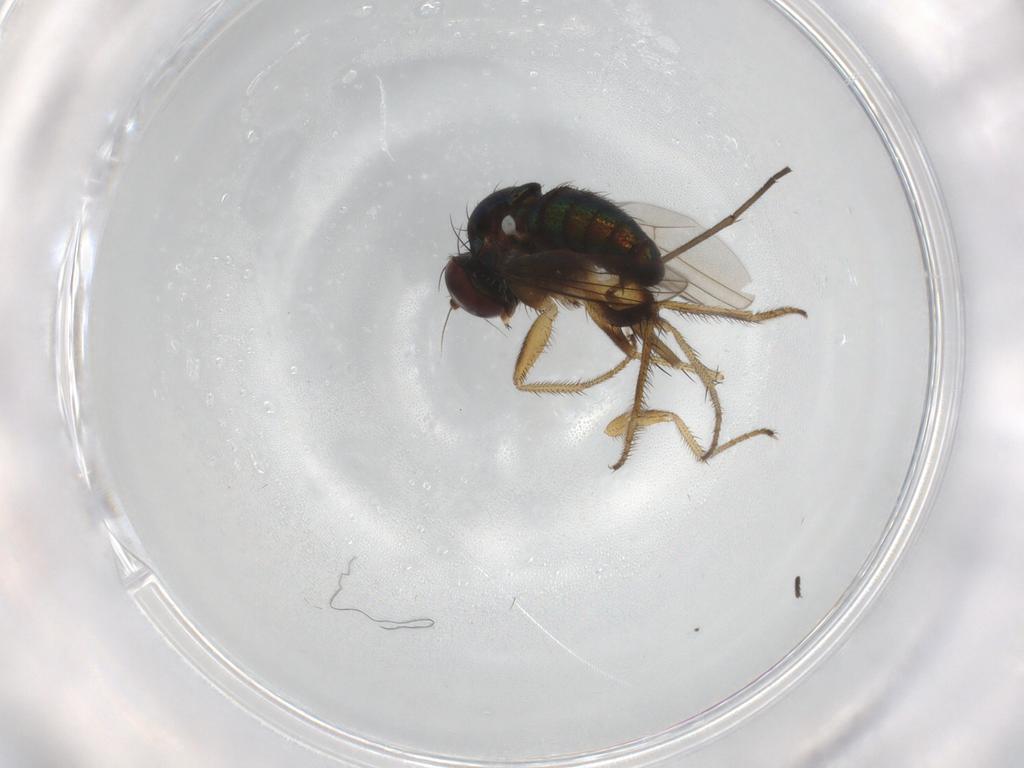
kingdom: Animalia
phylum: Arthropoda
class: Insecta
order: Diptera
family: Dolichopodidae
